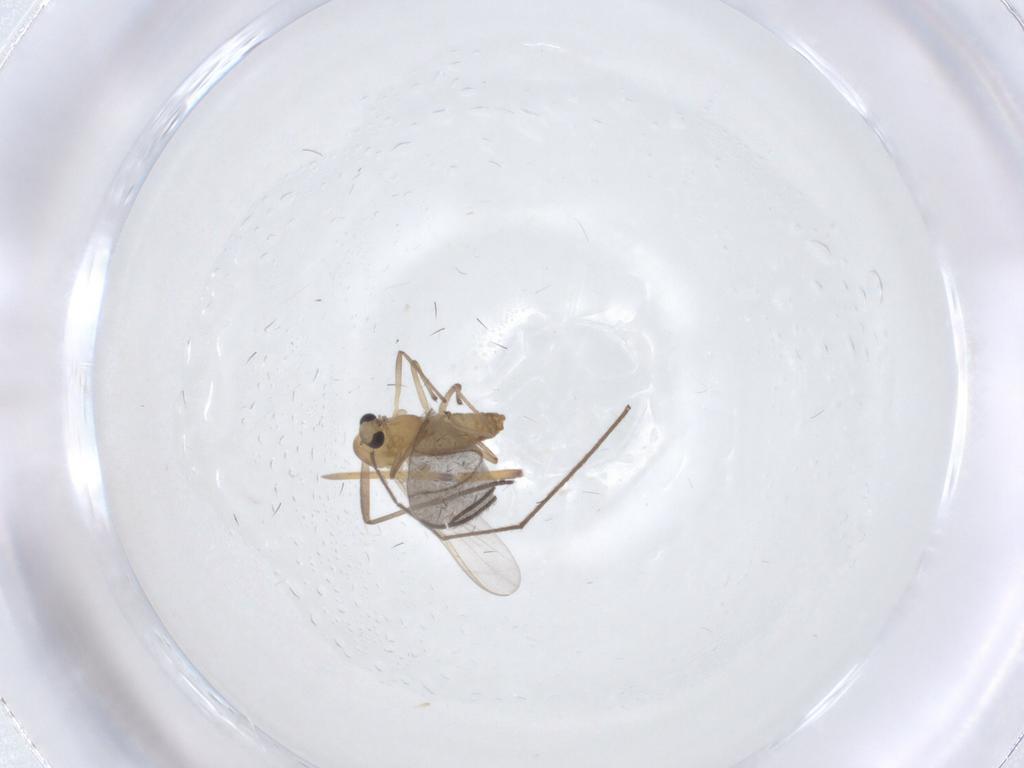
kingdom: Animalia
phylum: Arthropoda
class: Insecta
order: Diptera
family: Chironomidae
